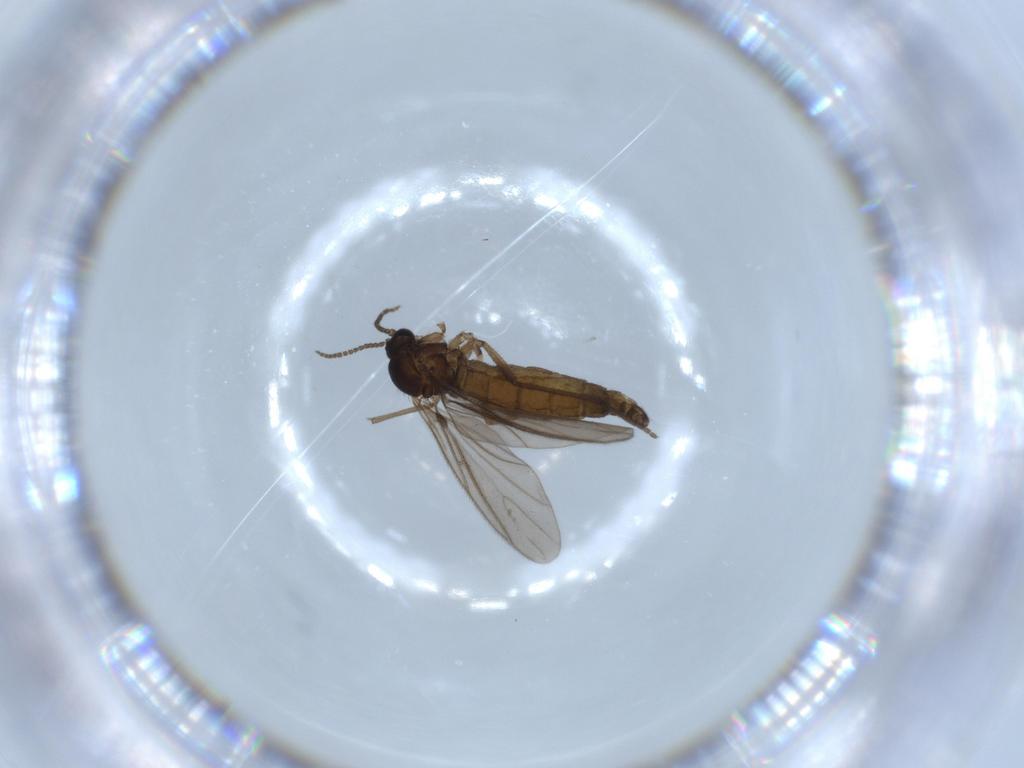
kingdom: Animalia
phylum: Arthropoda
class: Insecta
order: Diptera
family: Sciaridae
